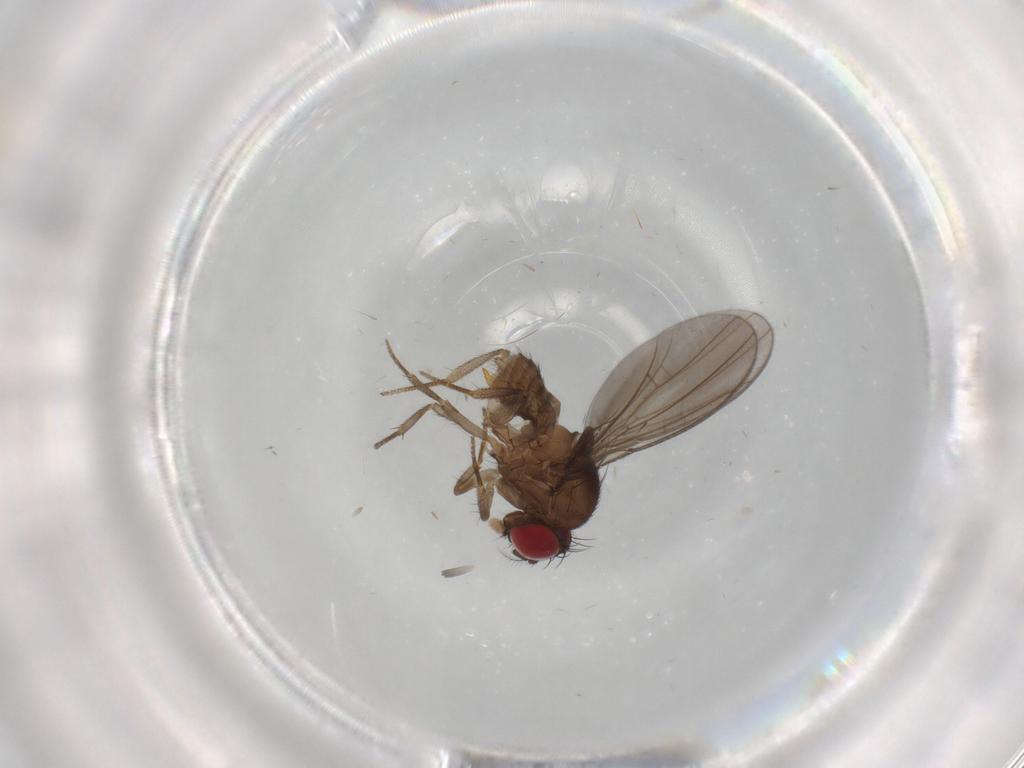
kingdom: Animalia
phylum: Arthropoda
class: Insecta
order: Diptera
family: Drosophilidae
